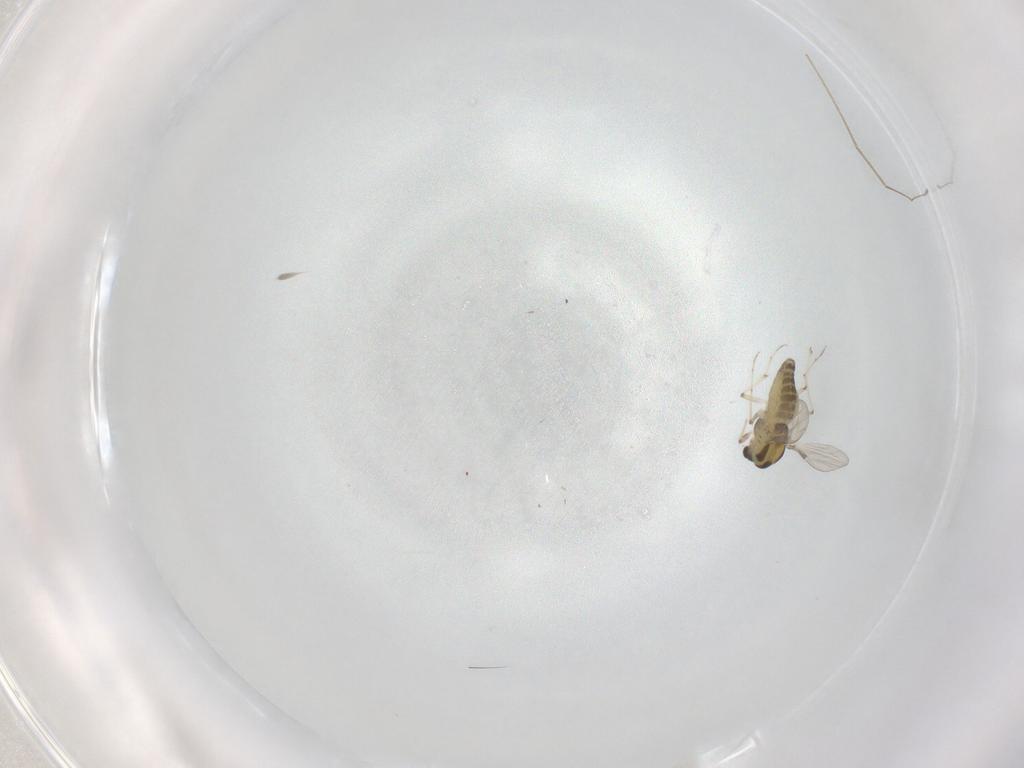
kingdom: Animalia
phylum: Arthropoda
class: Insecta
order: Diptera
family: Chironomidae
